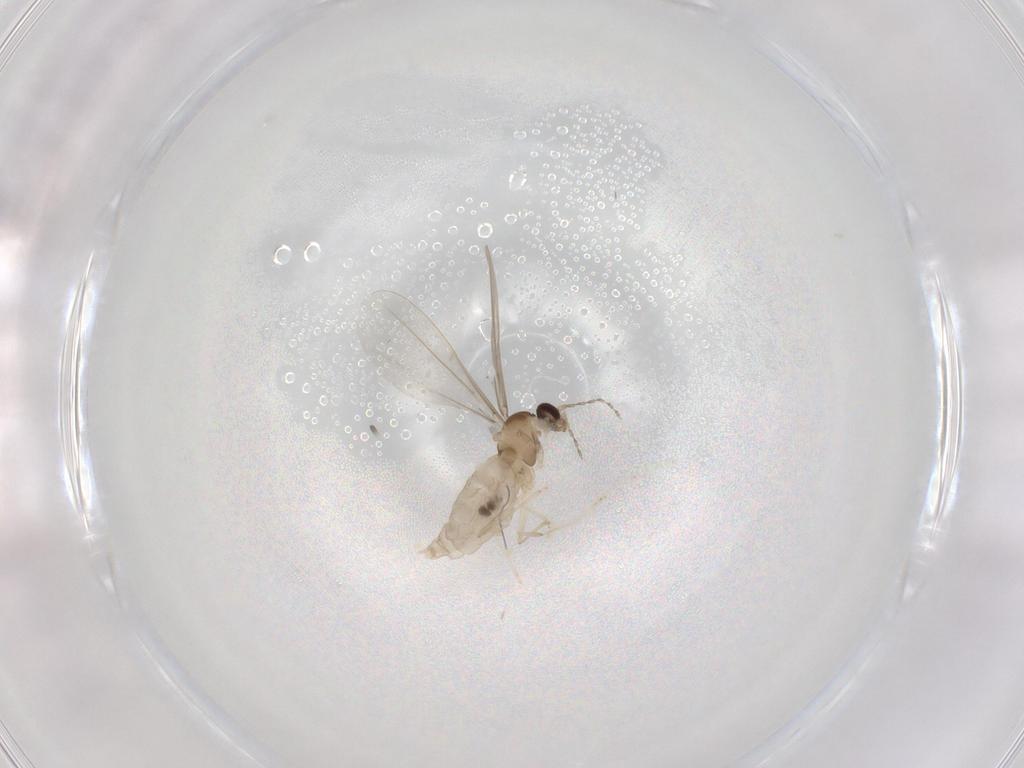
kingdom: Animalia
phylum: Arthropoda
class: Insecta
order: Diptera
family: Cecidomyiidae
